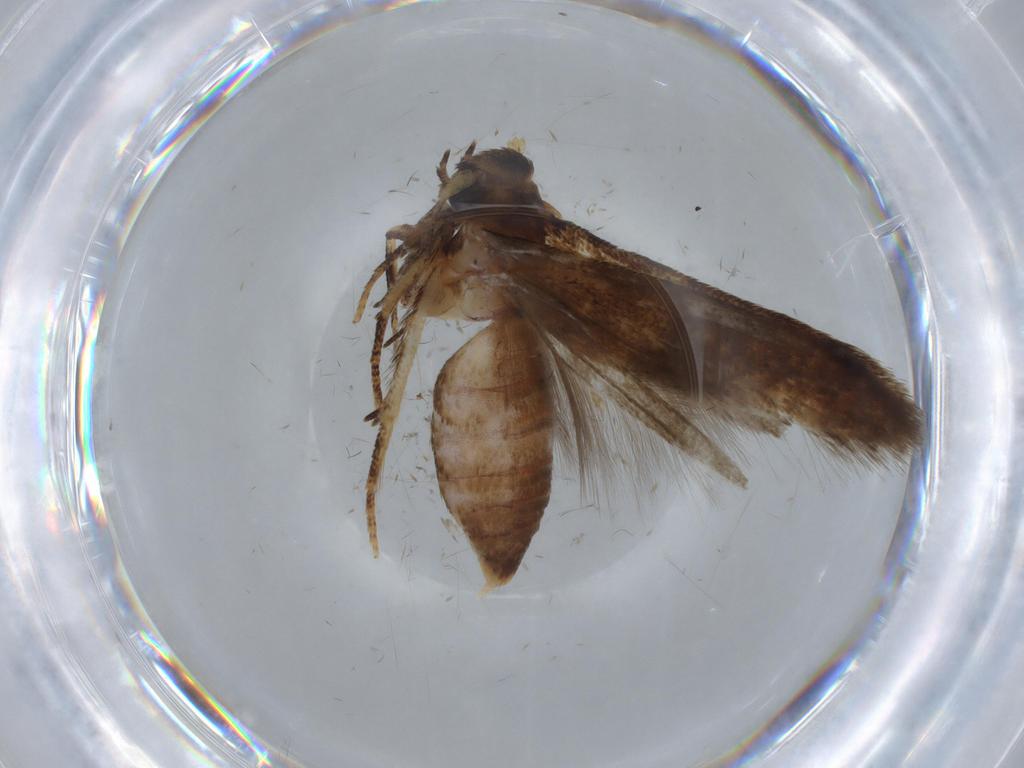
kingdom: Animalia
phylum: Arthropoda
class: Insecta
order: Lepidoptera
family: Blastobasidae
